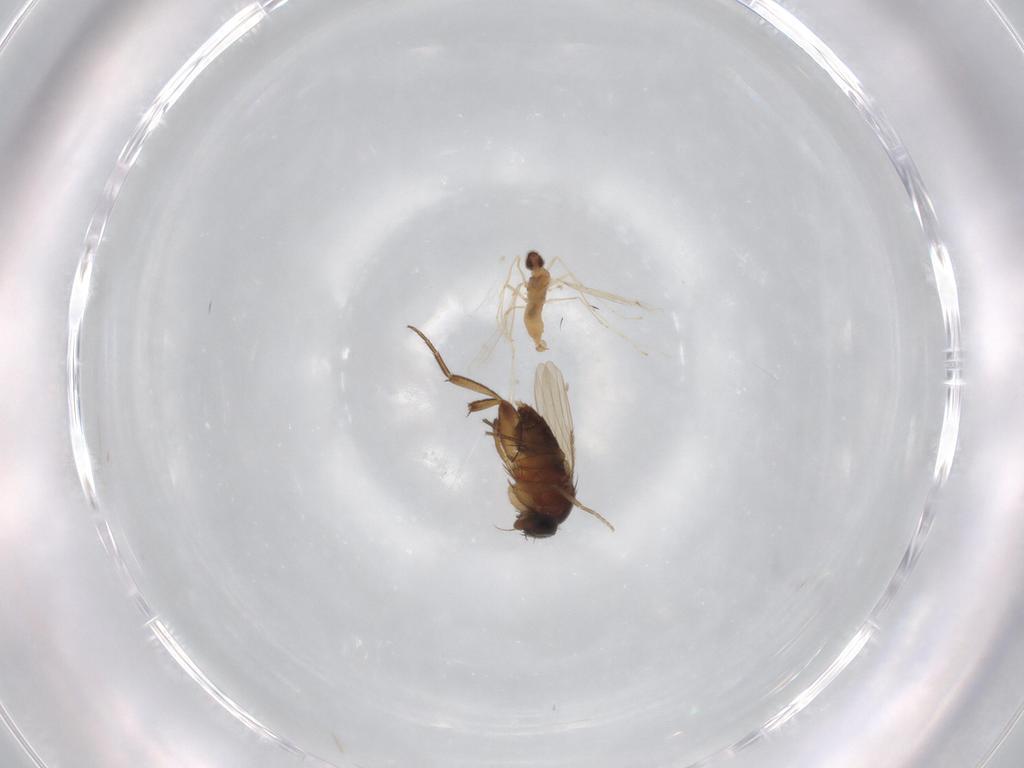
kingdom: Animalia
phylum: Arthropoda
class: Insecta
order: Diptera
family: Cecidomyiidae
